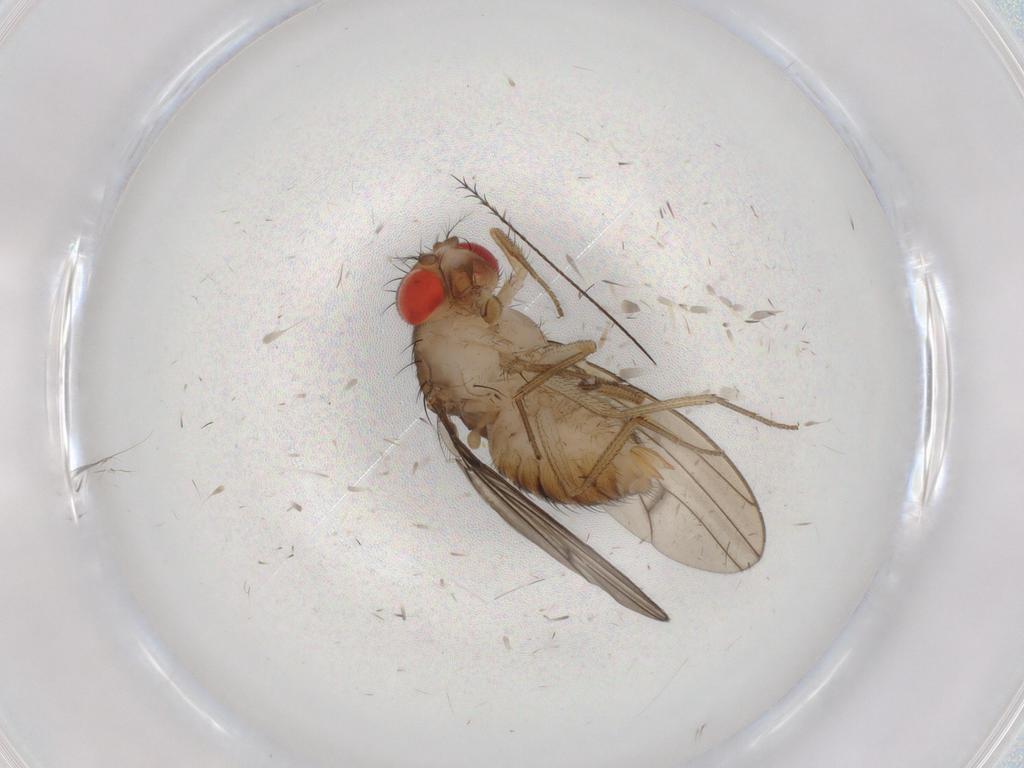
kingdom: Animalia
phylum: Arthropoda
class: Insecta
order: Diptera
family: Drosophilidae
